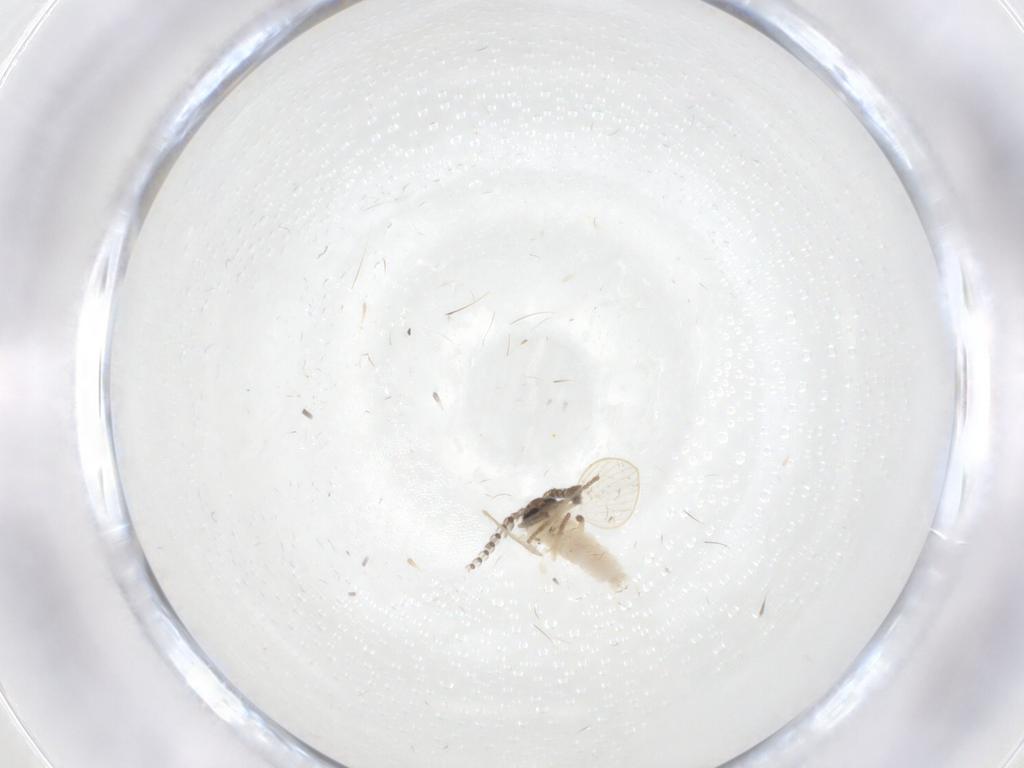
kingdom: Animalia
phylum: Arthropoda
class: Insecta
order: Diptera
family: Psychodidae
